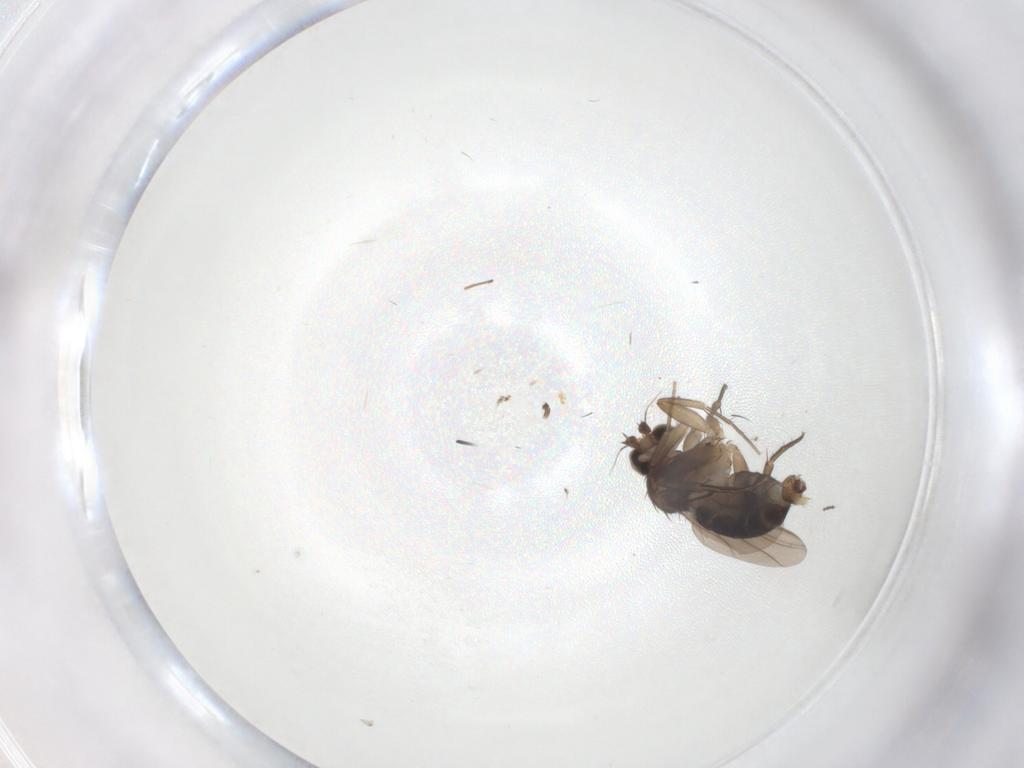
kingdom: Animalia
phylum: Arthropoda
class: Insecta
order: Diptera
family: Phoridae
